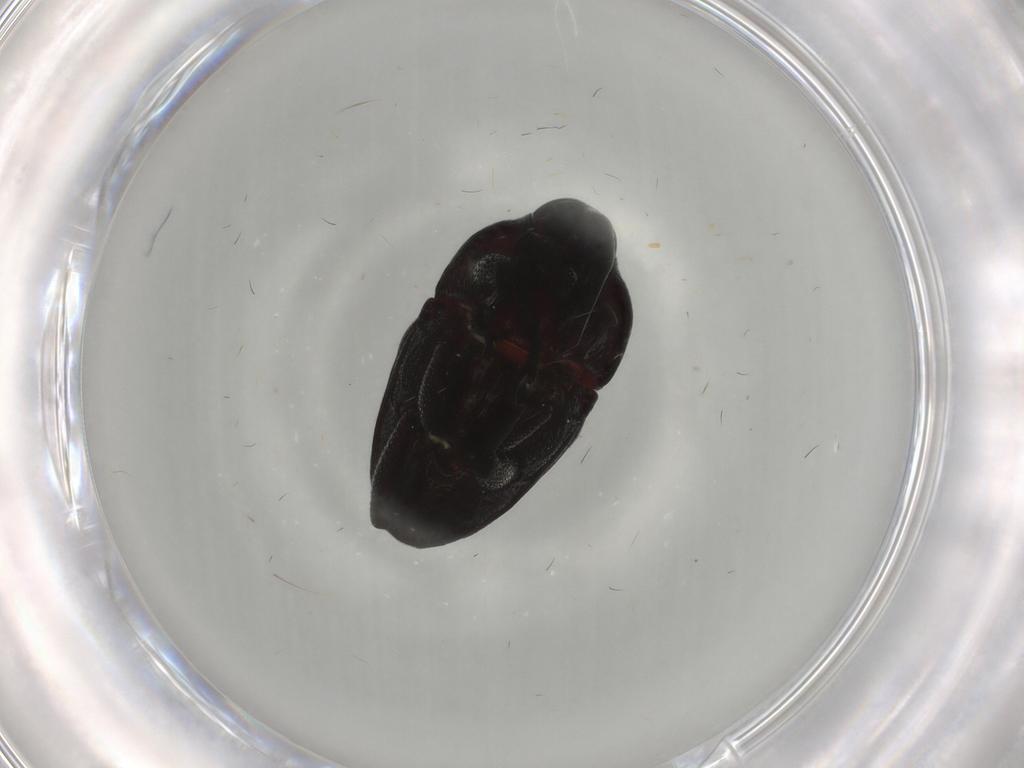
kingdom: Animalia
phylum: Arthropoda
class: Insecta
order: Coleoptera
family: Curculionidae
